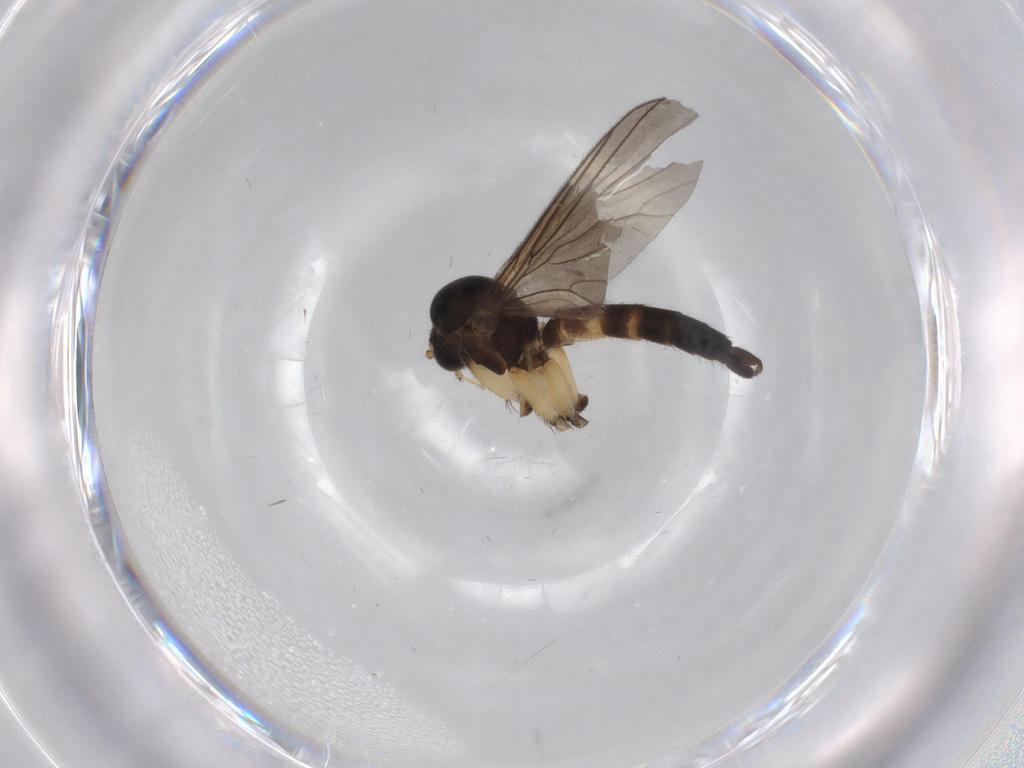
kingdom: Animalia
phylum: Arthropoda
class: Insecta
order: Diptera
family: Mycetophilidae
